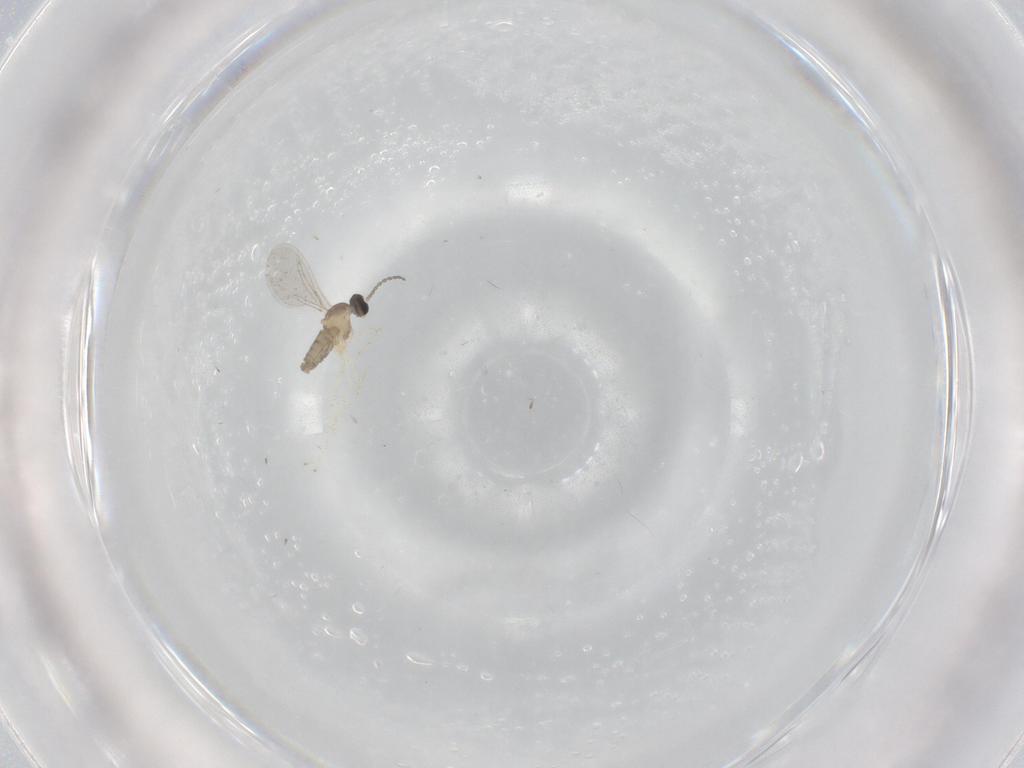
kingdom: Animalia
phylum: Arthropoda
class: Insecta
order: Diptera
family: Cecidomyiidae
